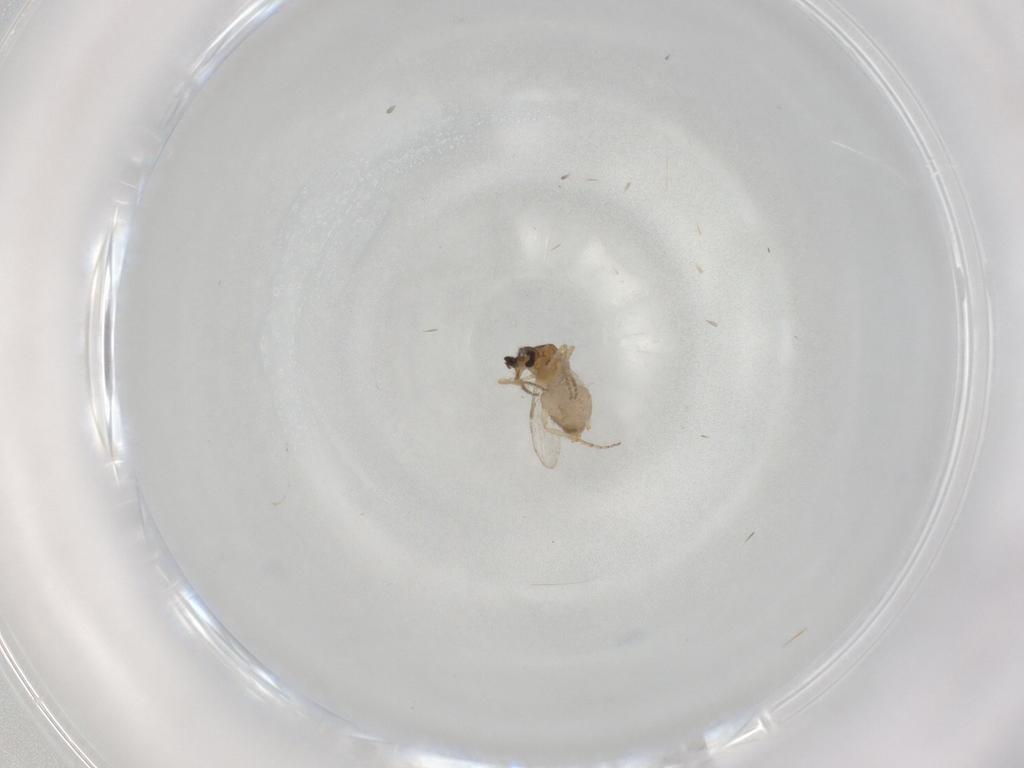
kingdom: Animalia
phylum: Arthropoda
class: Insecta
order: Diptera
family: Ceratopogonidae
